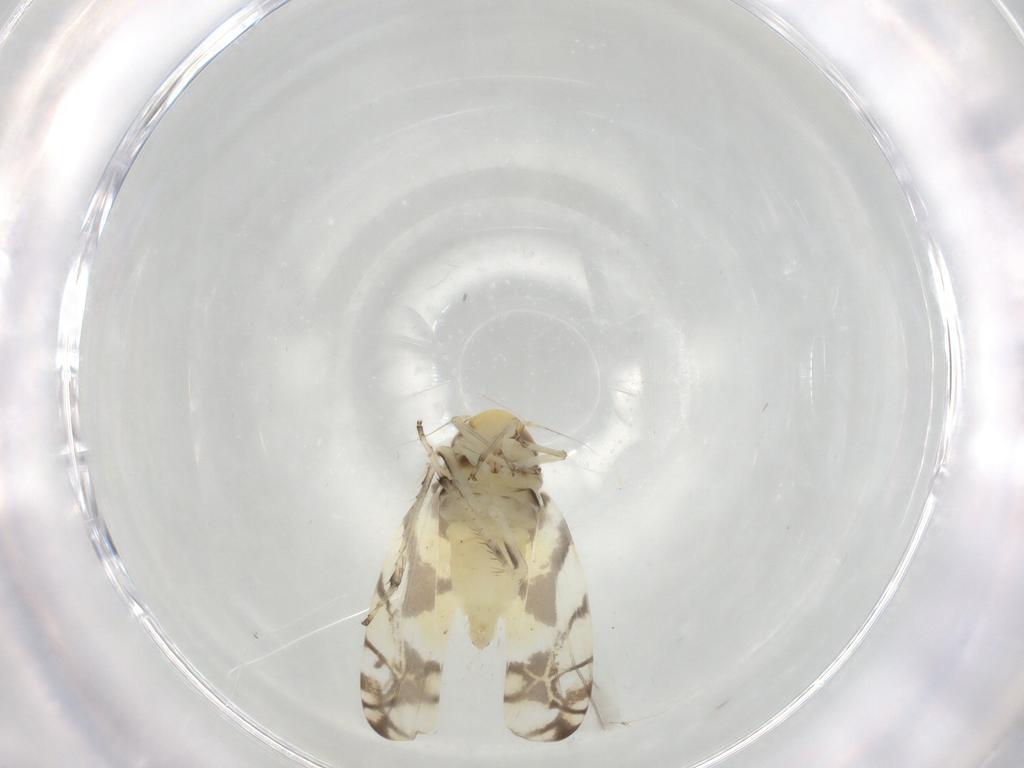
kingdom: Animalia
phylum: Arthropoda
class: Insecta
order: Hemiptera
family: Cicadellidae
